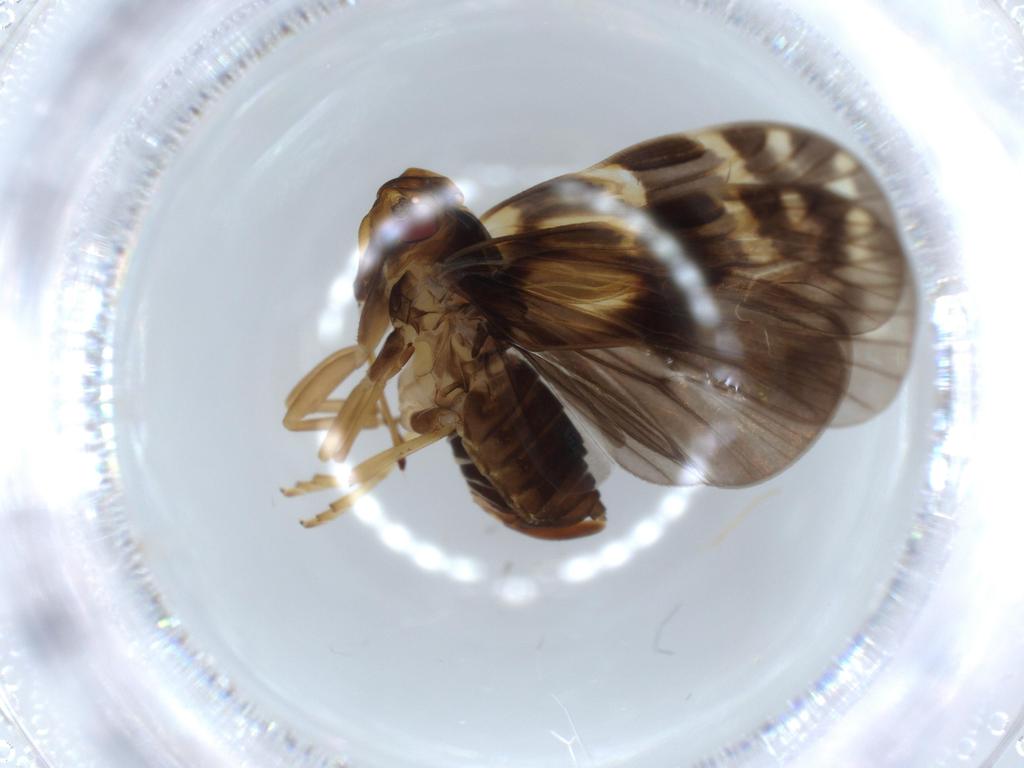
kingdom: Animalia
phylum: Arthropoda
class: Insecta
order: Hemiptera
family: Cixiidae
